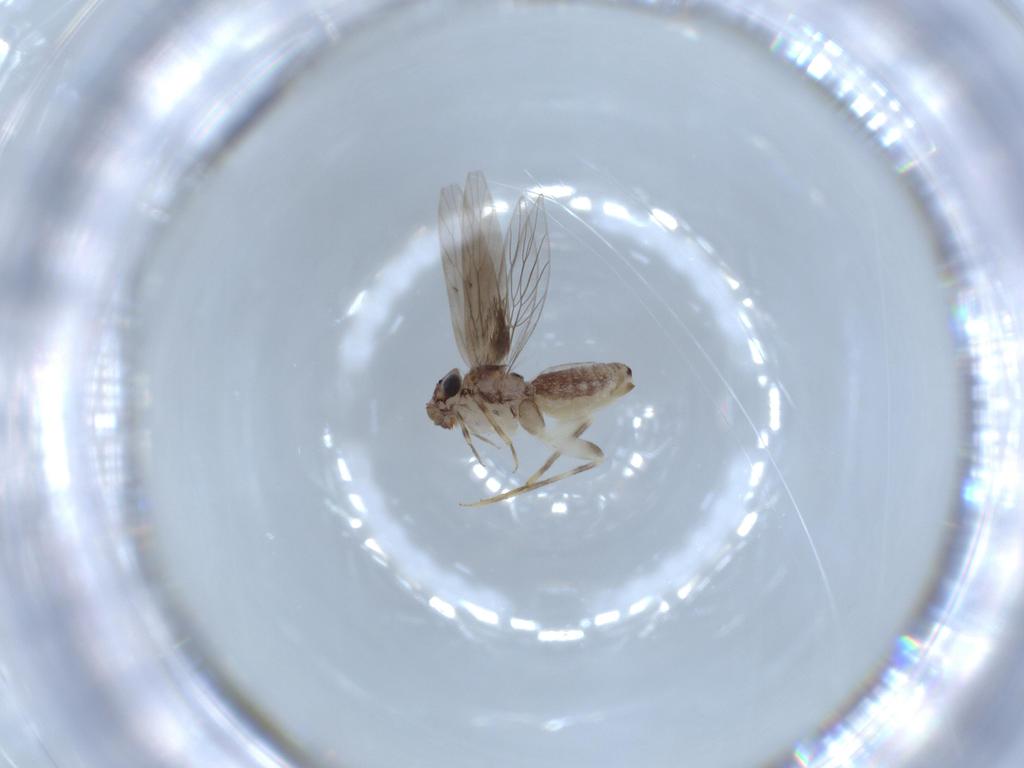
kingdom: Animalia
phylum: Arthropoda
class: Insecta
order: Psocodea
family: Lepidopsocidae
